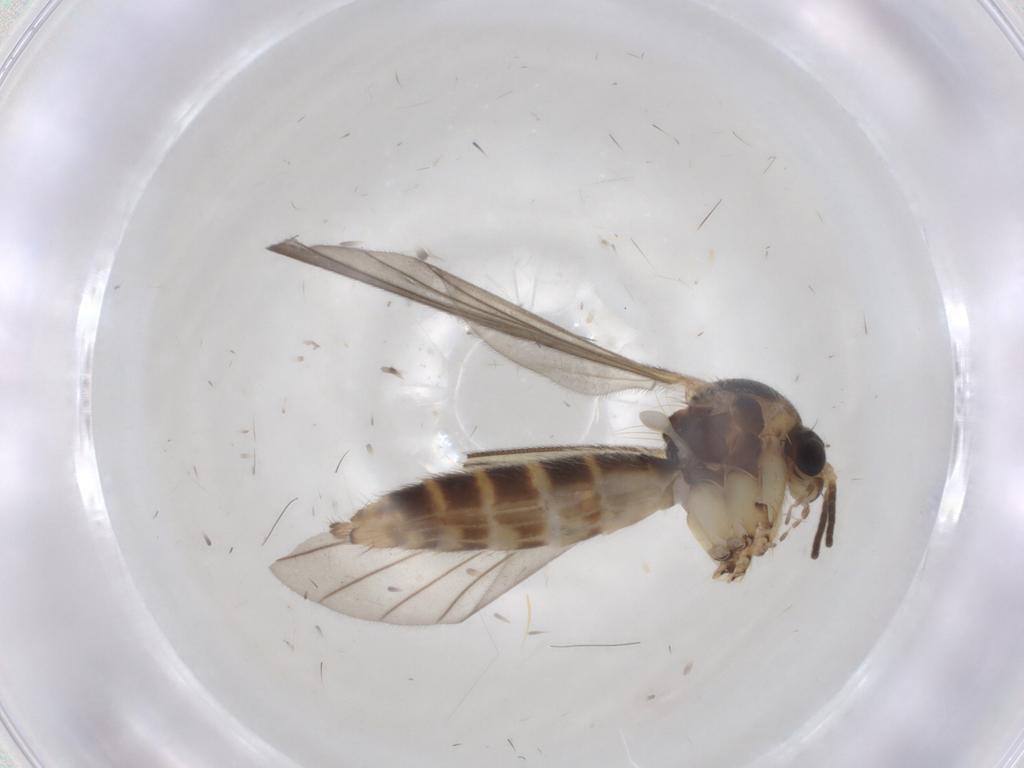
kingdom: Animalia
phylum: Arthropoda
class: Insecta
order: Diptera
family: Mycetophilidae
